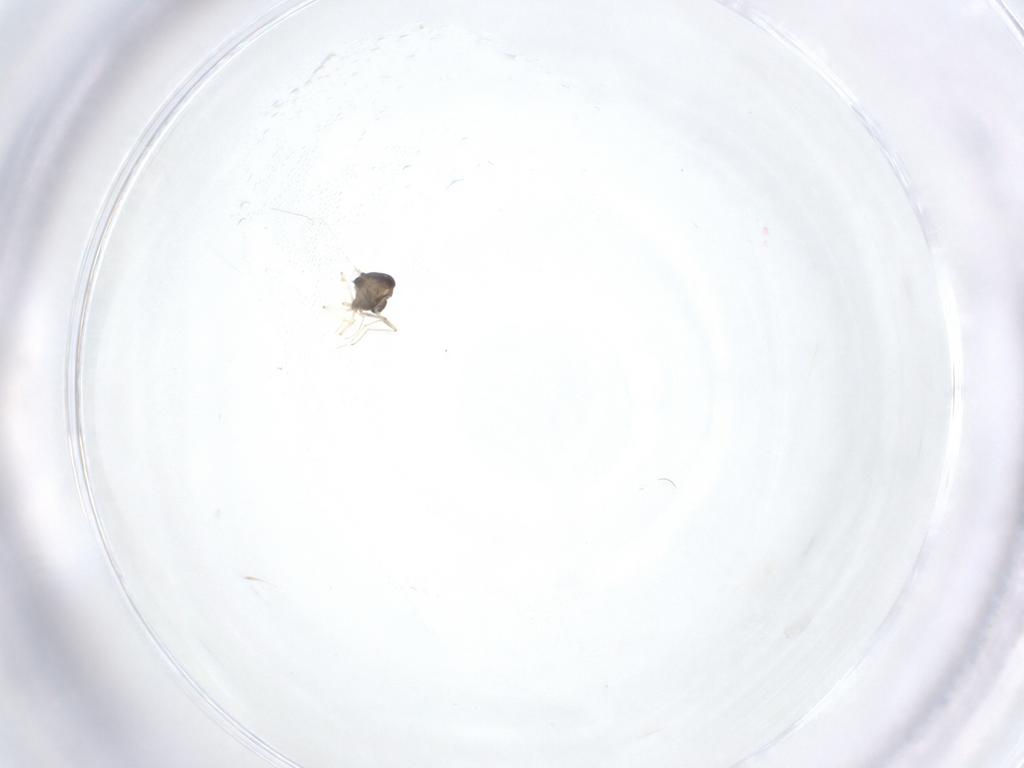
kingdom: Animalia
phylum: Arthropoda
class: Insecta
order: Diptera
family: Chironomidae
